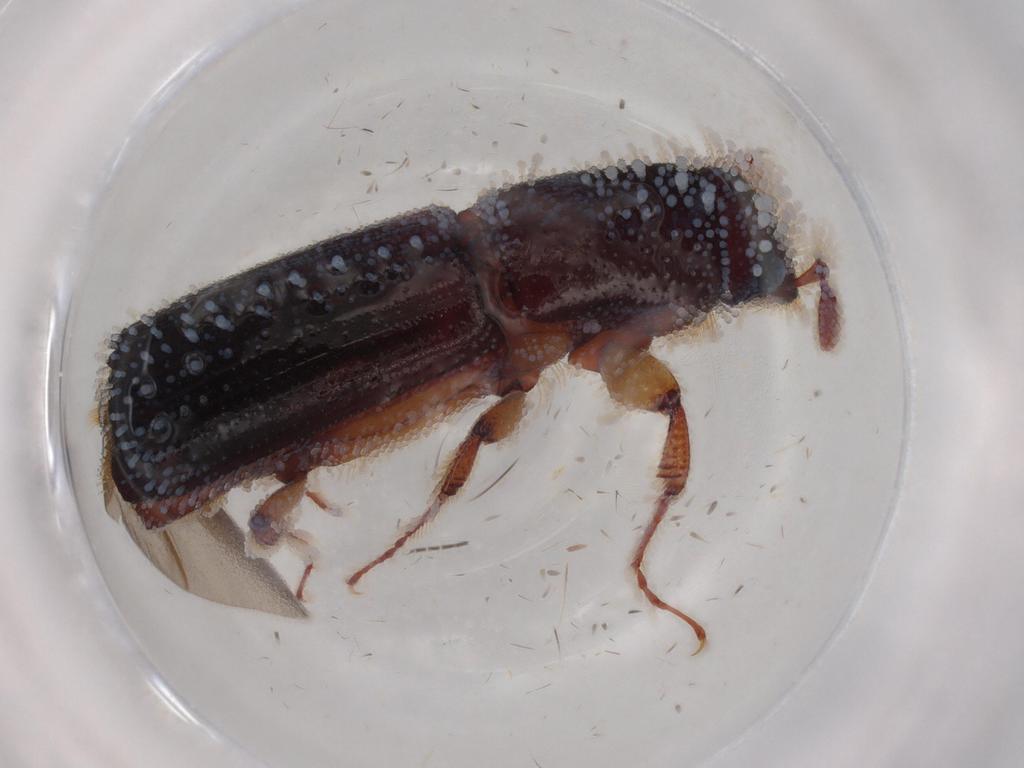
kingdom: Animalia
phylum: Arthropoda
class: Insecta
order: Coleoptera
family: Curculionidae
